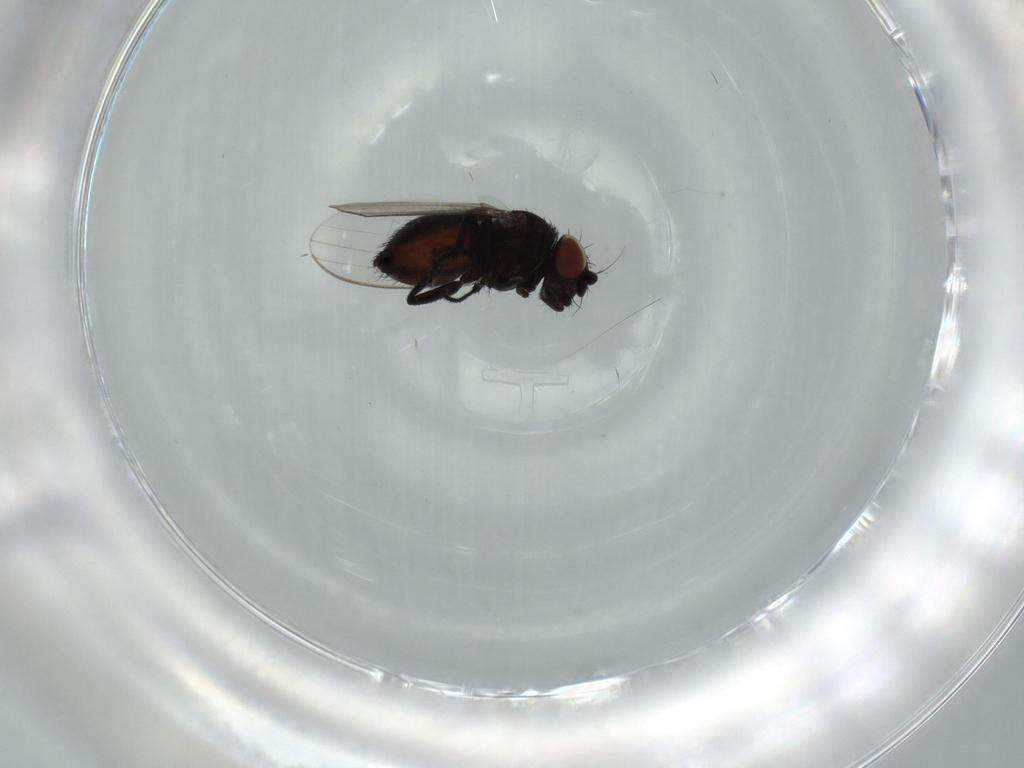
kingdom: Animalia
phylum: Arthropoda
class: Insecta
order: Diptera
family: Milichiidae
